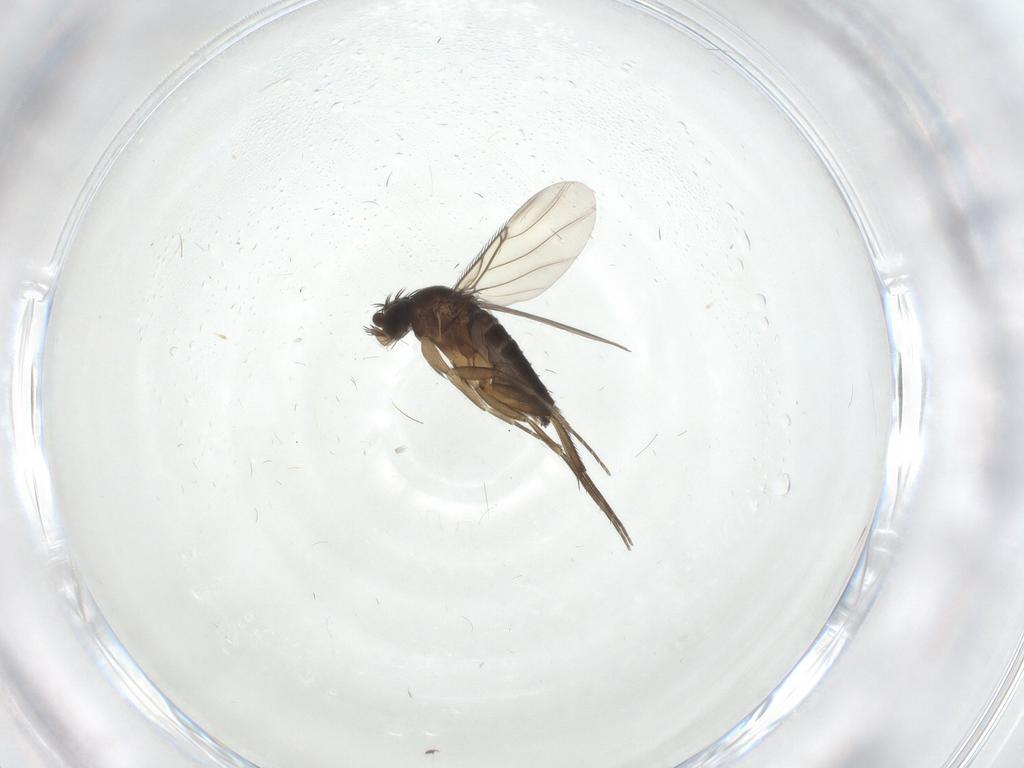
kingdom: Animalia
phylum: Arthropoda
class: Insecta
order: Diptera
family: Phoridae
